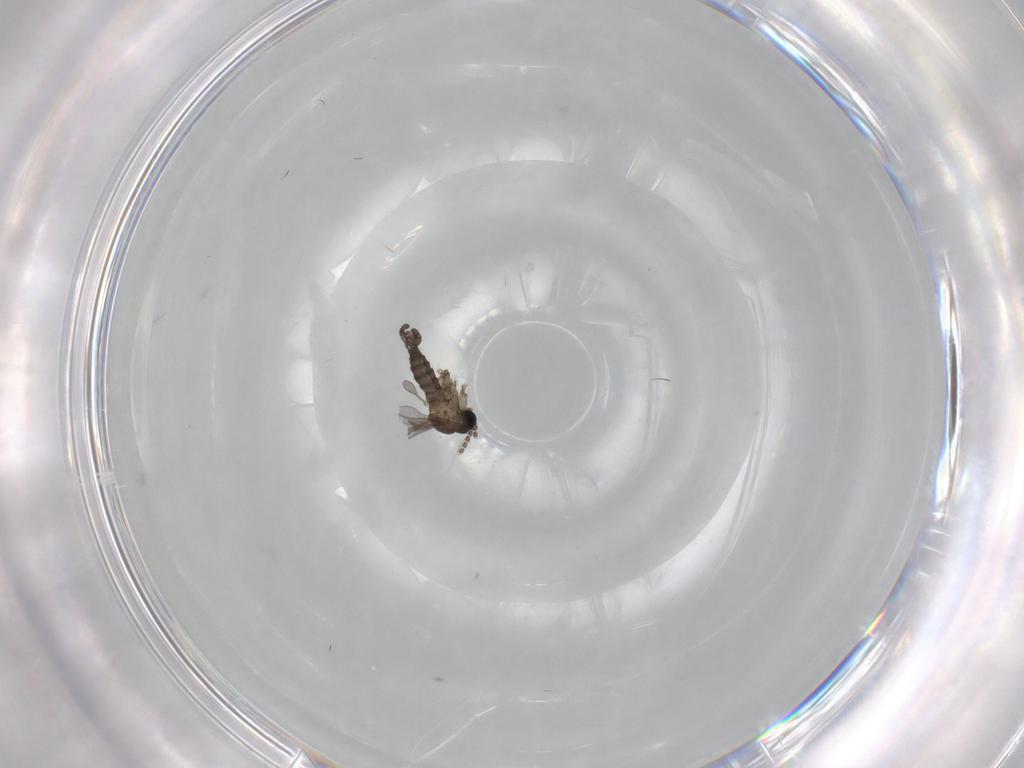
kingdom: Animalia
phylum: Arthropoda
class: Insecta
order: Diptera
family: Sciaridae
